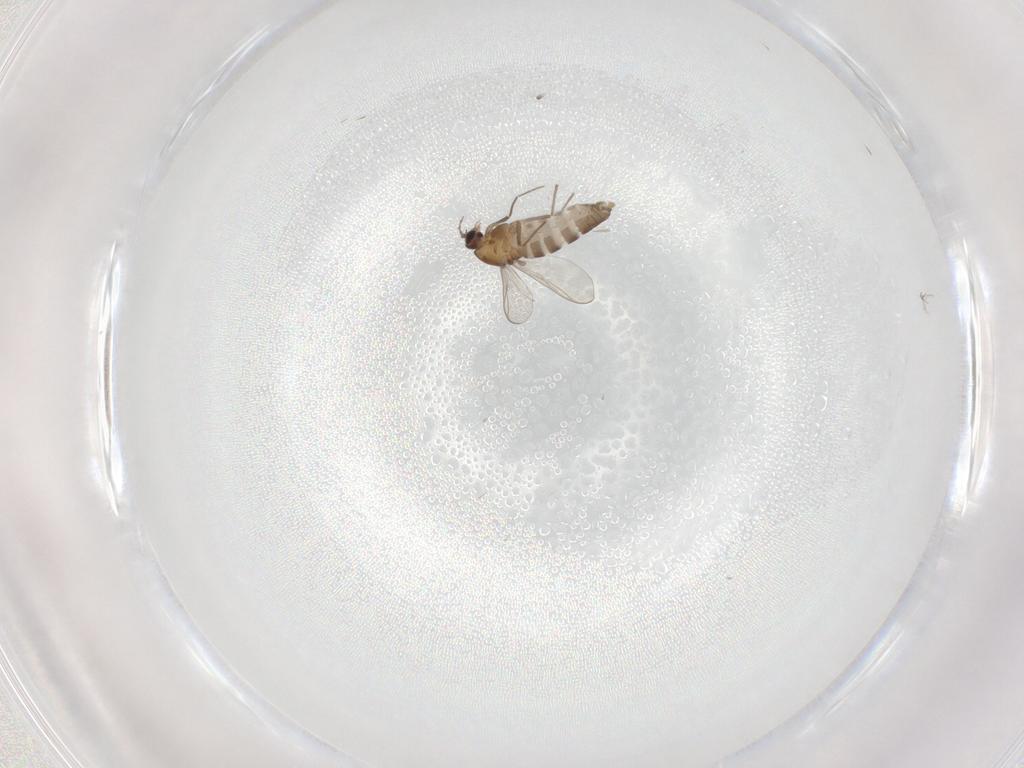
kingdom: Animalia
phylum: Arthropoda
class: Insecta
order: Diptera
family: Chironomidae
